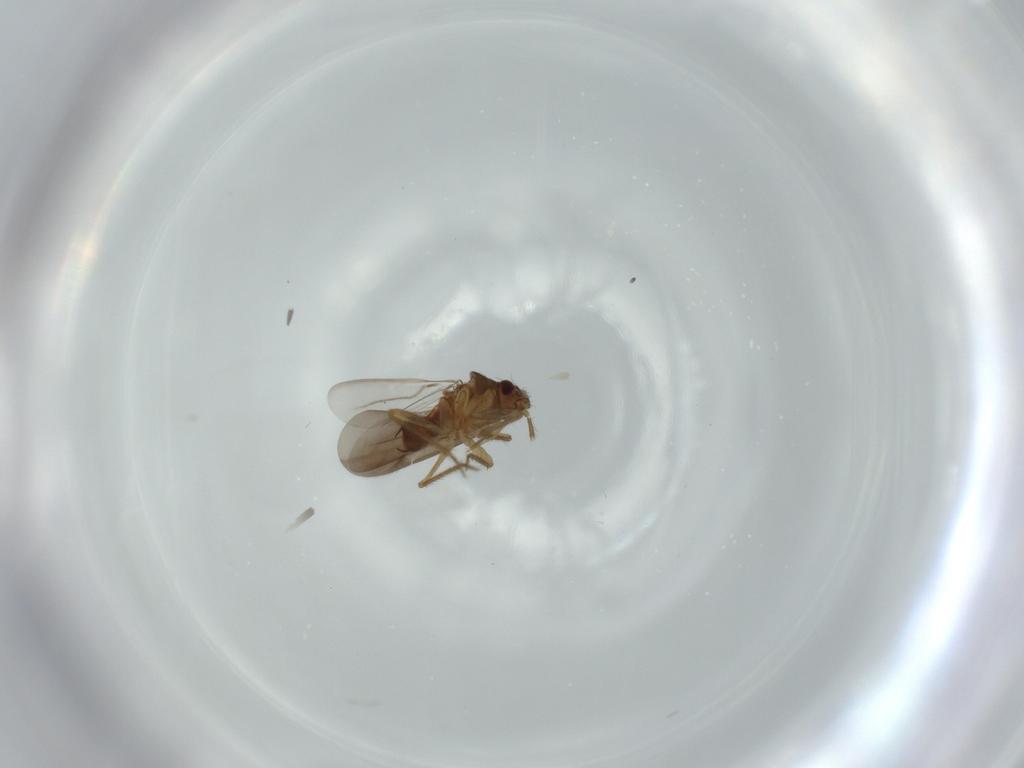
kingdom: Animalia
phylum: Arthropoda
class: Insecta
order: Hemiptera
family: Ceratocombidae
